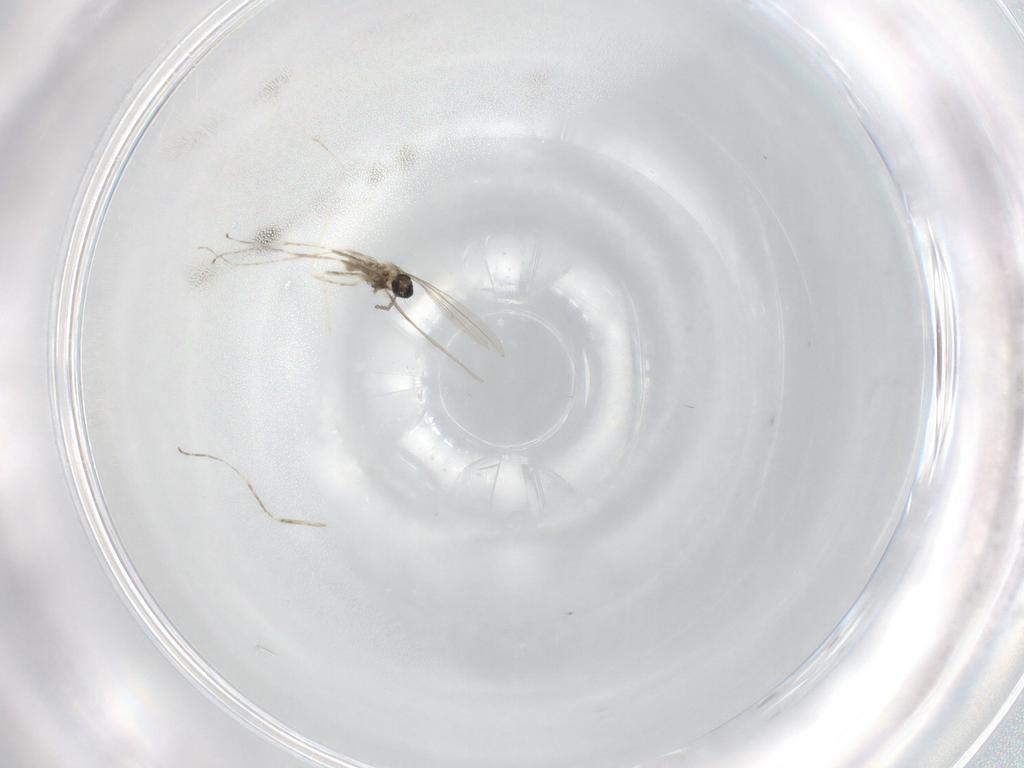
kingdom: Animalia
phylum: Arthropoda
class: Insecta
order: Diptera
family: Cecidomyiidae
